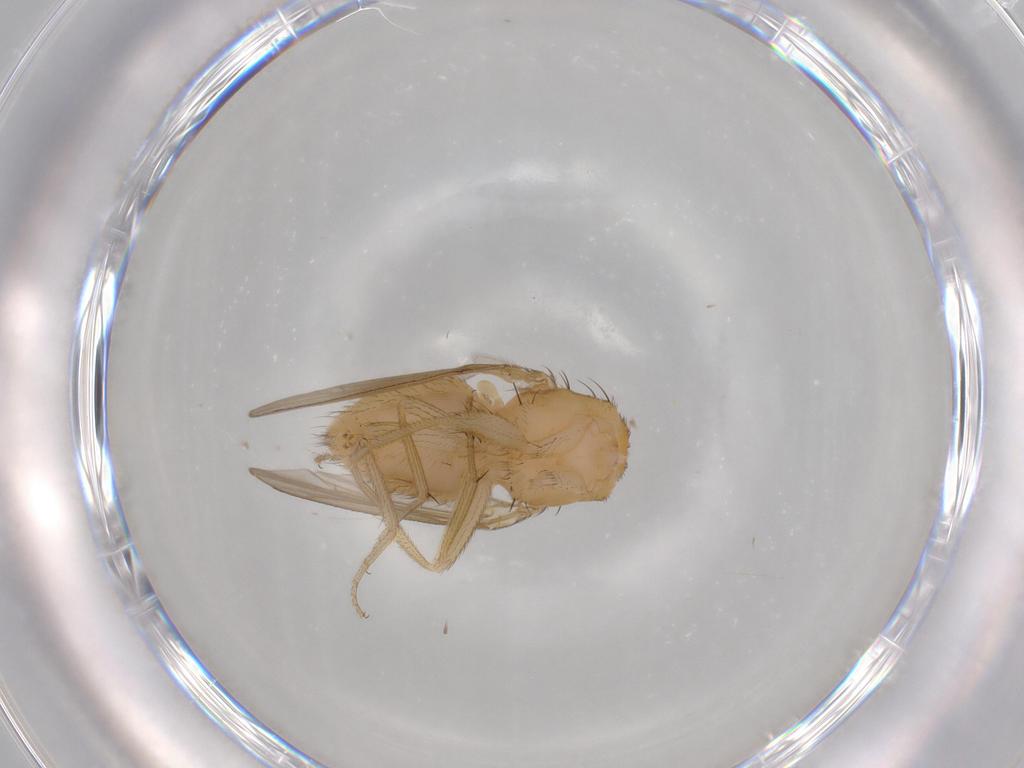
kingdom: Animalia
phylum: Arthropoda
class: Insecta
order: Diptera
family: Drosophilidae
